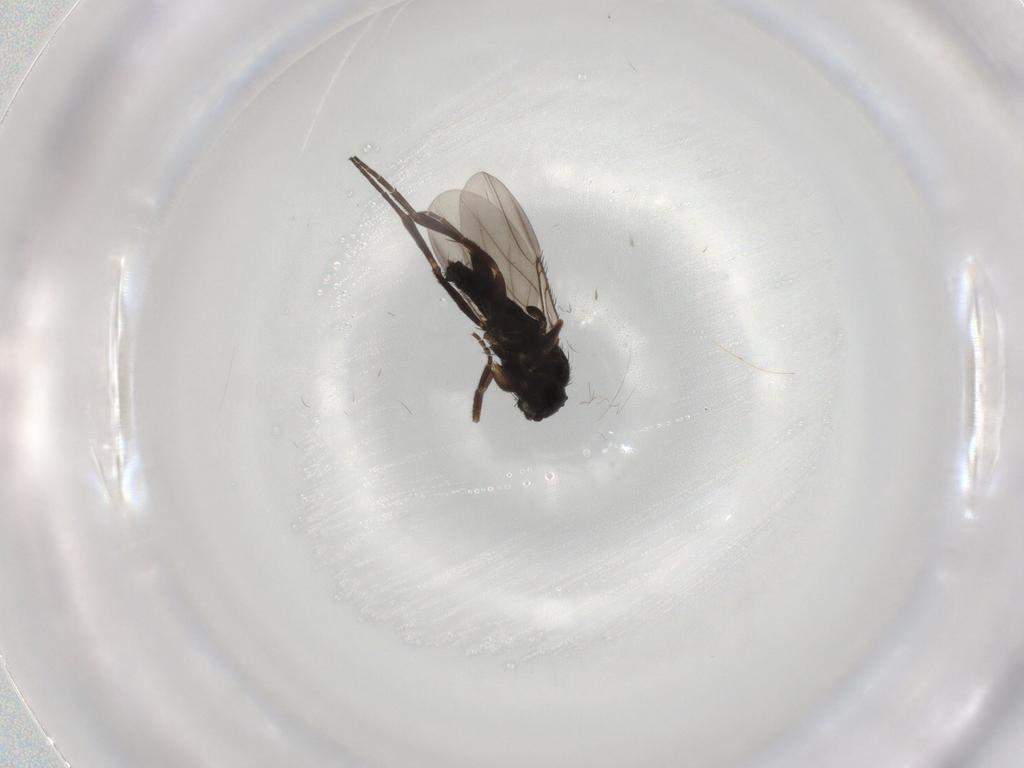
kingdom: Animalia
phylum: Arthropoda
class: Insecta
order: Diptera
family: Phoridae
